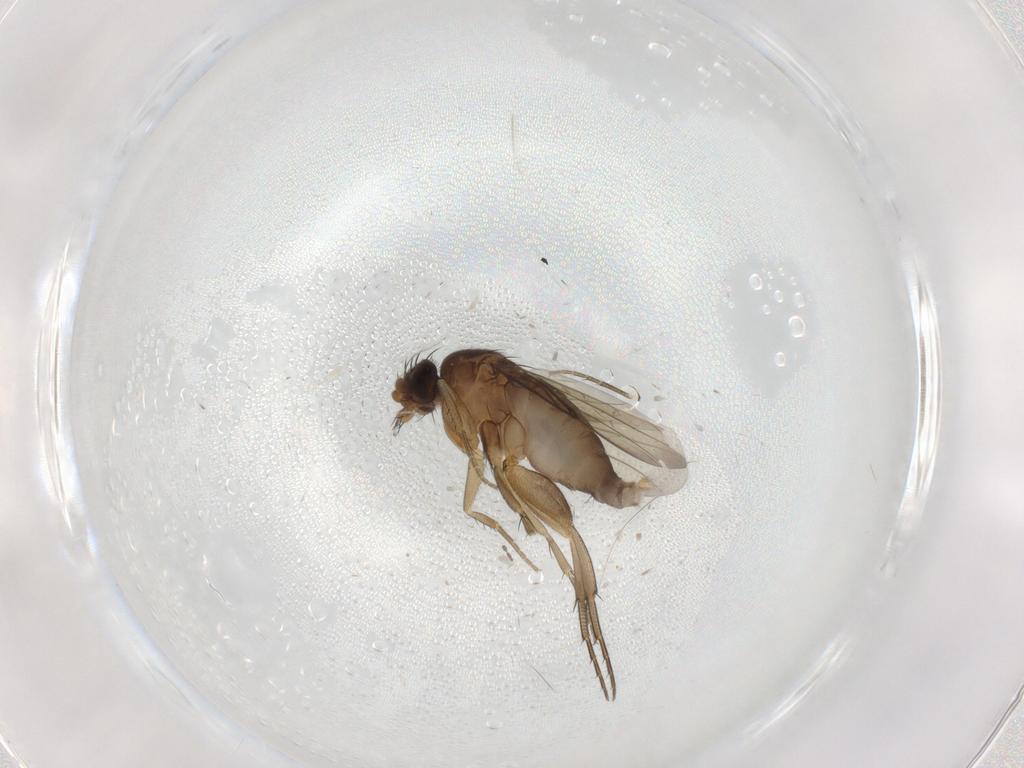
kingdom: Animalia
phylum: Arthropoda
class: Insecta
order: Diptera
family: Phoridae
